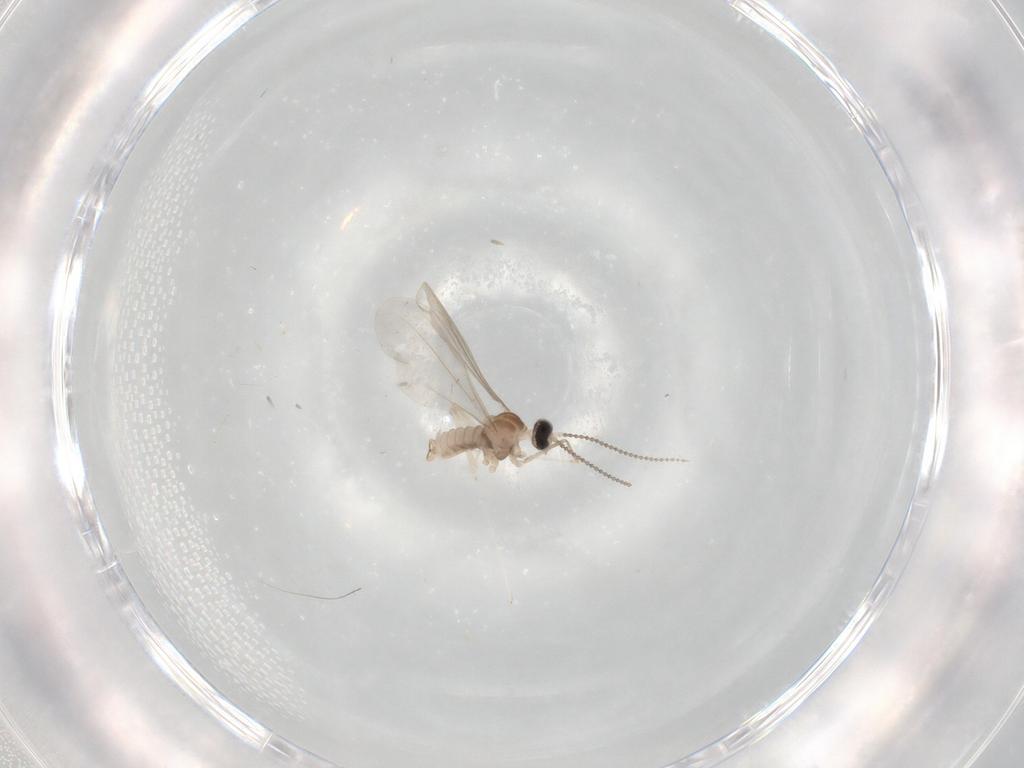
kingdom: Animalia
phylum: Arthropoda
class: Insecta
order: Diptera
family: Cecidomyiidae
